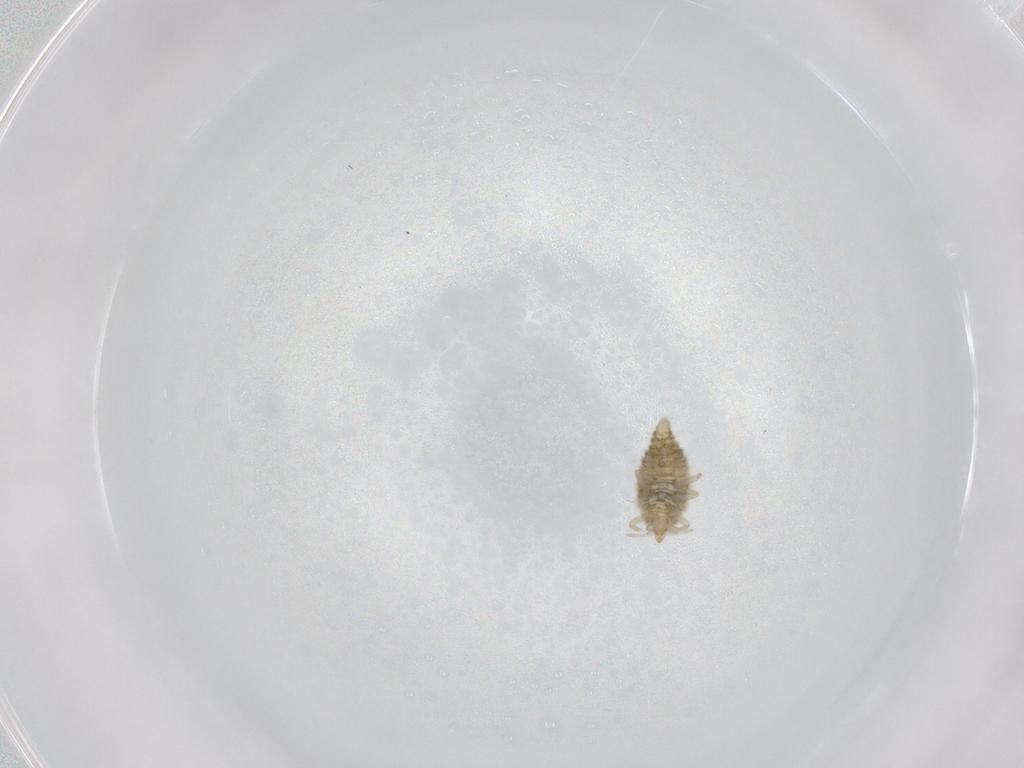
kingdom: Animalia
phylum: Arthropoda
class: Insecta
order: Neuroptera
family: Coniopterygidae
